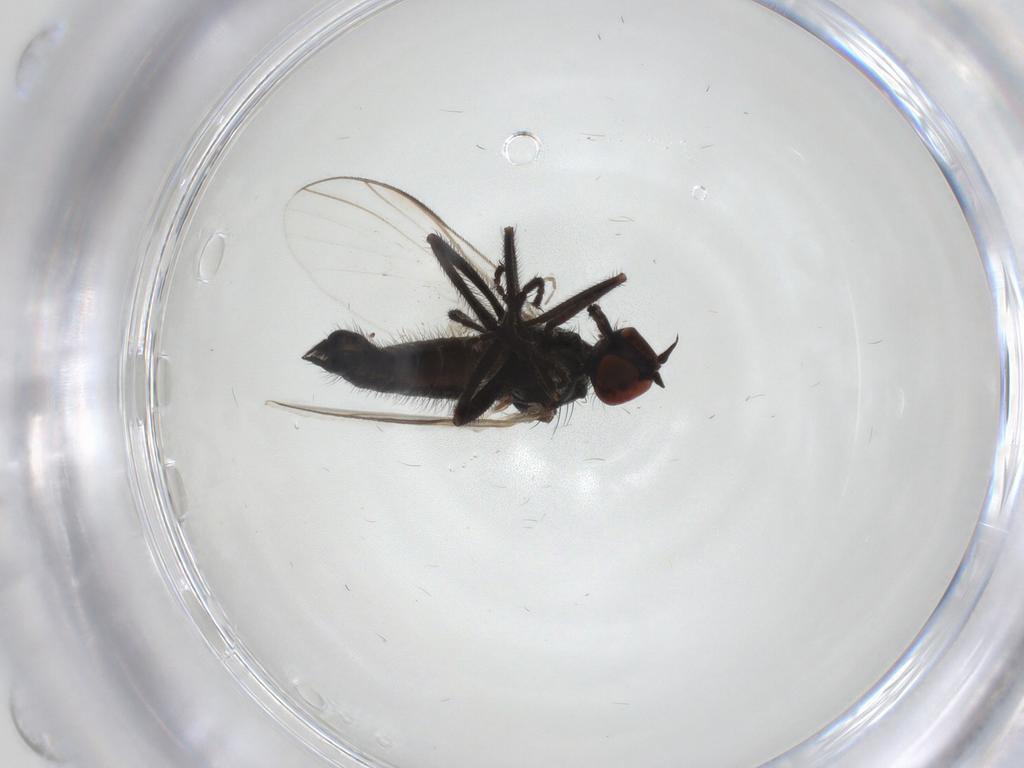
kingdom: Animalia
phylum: Arthropoda
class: Insecta
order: Diptera
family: Empididae
